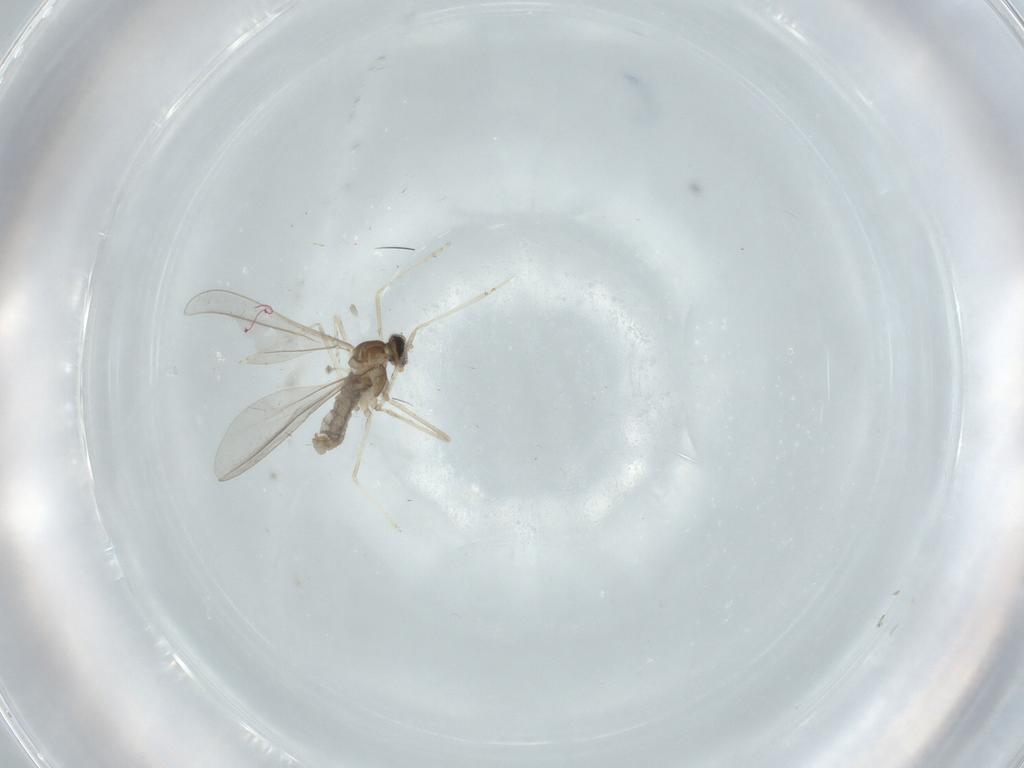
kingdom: Animalia
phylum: Arthropoda
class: Insecta
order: Diptera
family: Cecidomyiidae
